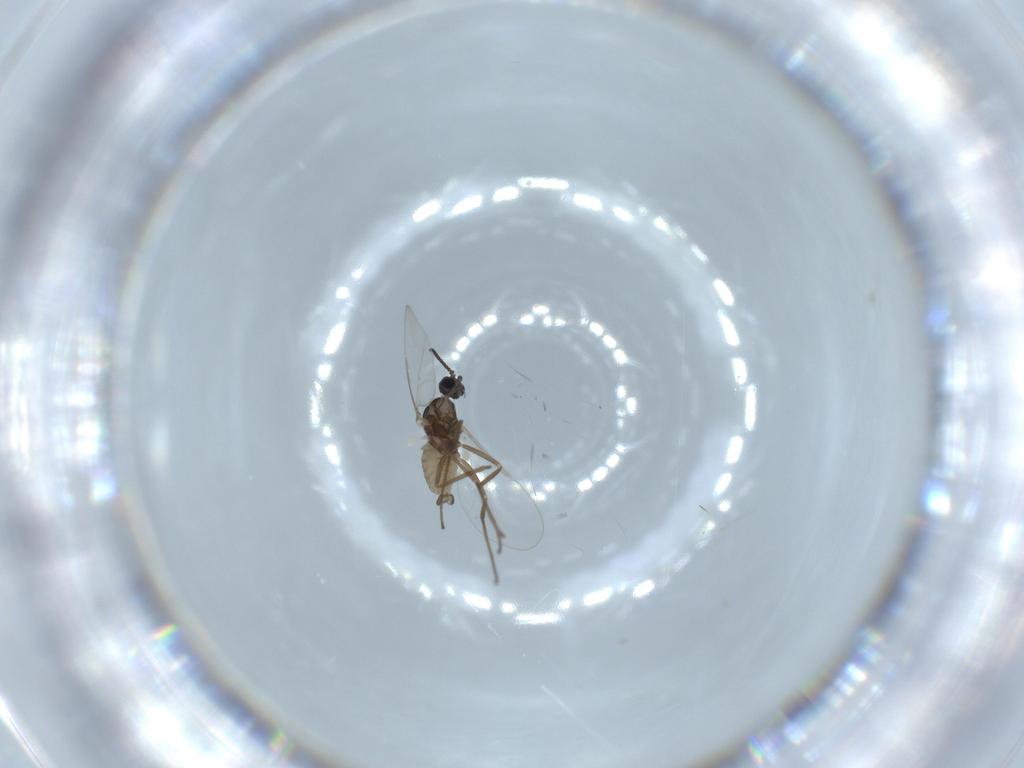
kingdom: Animalia
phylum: Arthropoda
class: Insecta
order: Diptera
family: Cecidomyiidae
